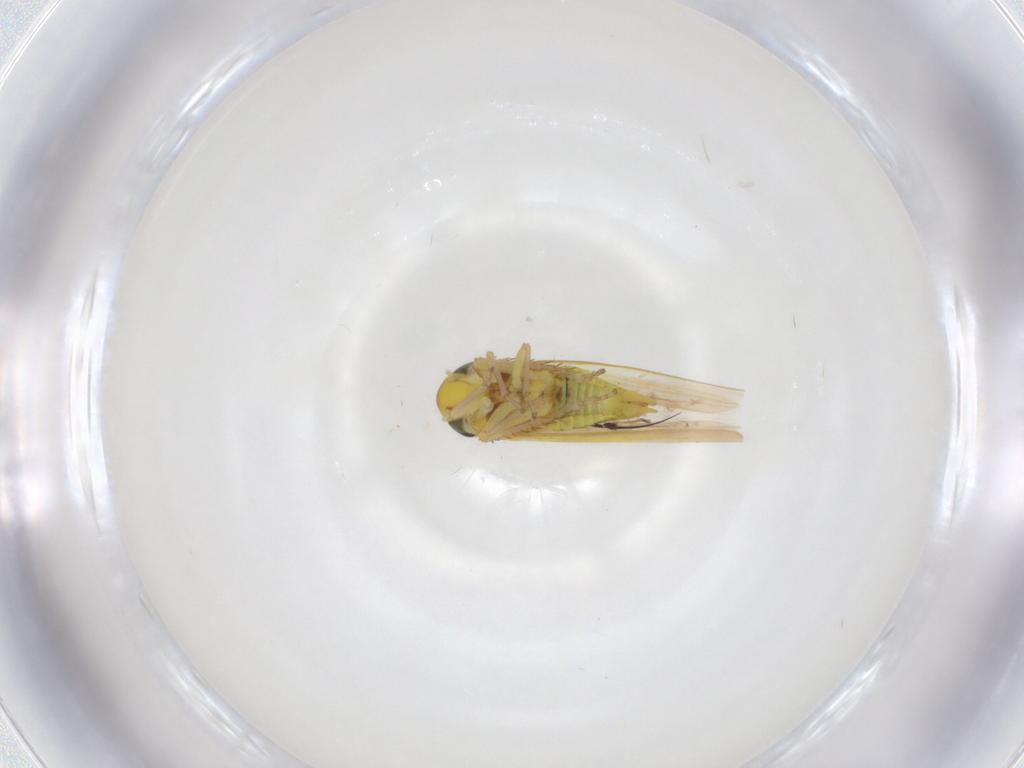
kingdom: Animalia
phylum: Arthropoda
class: Insecta
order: Hemiptera
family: Cicadellidae
